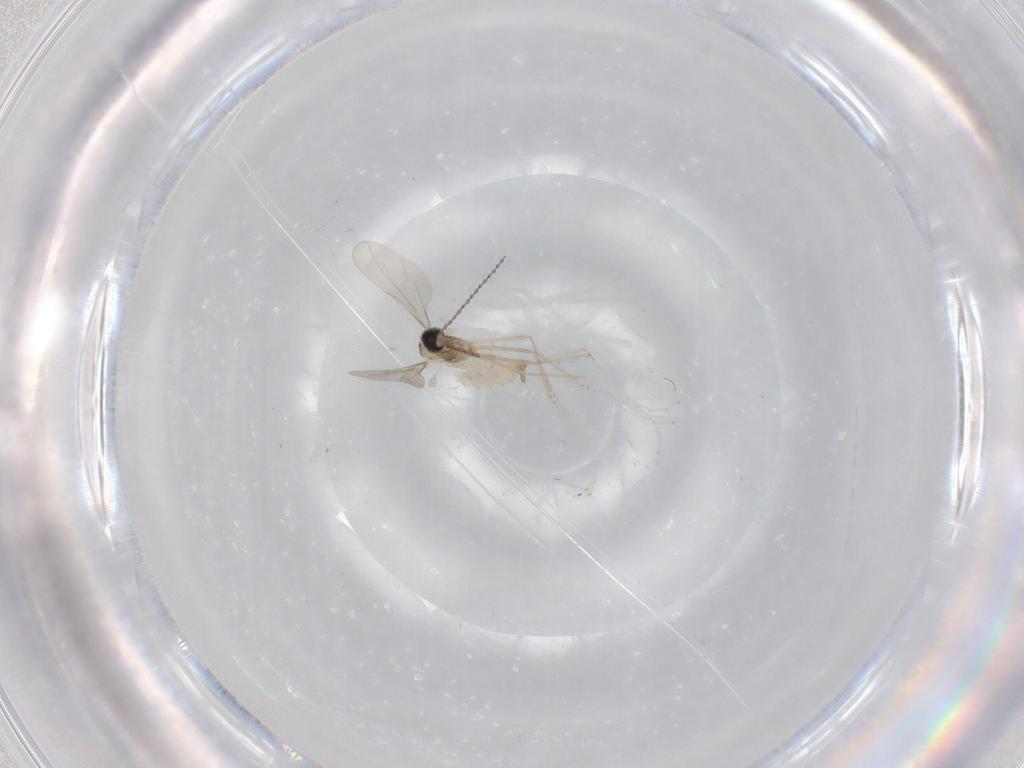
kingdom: Animalia
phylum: Arthropoda
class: Insecta
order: Diptera
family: Cecidomyiidae
